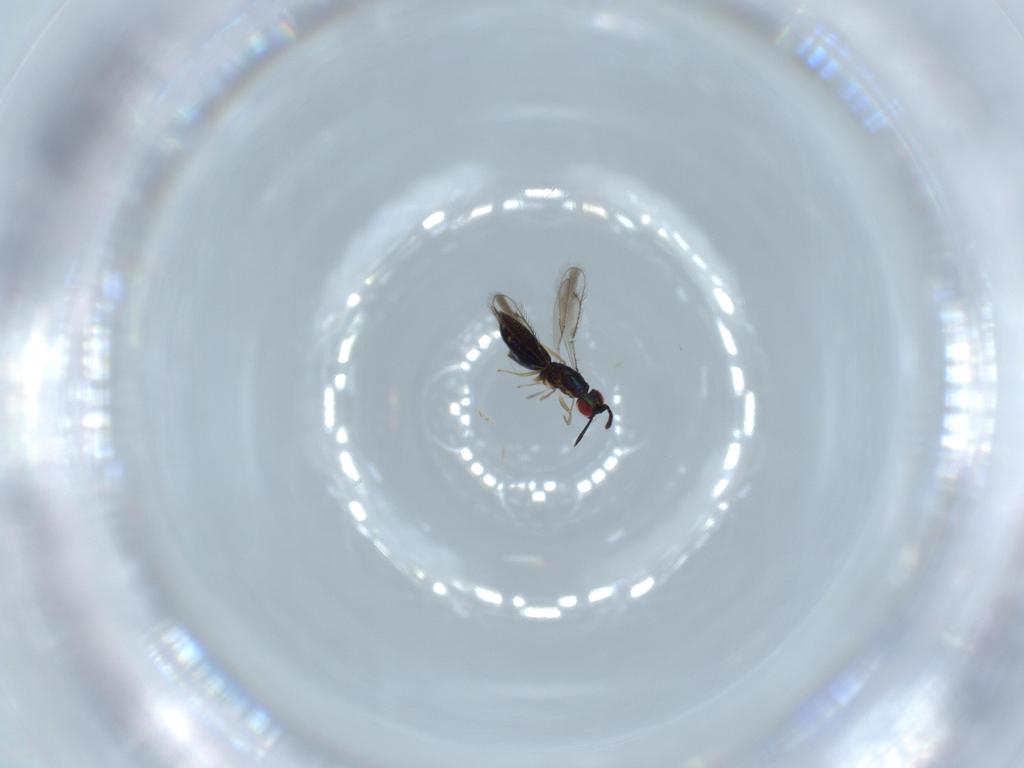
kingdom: Animalia
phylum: Arthropoda
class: Insecta
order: Hymenoptera
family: Pteromalidae
